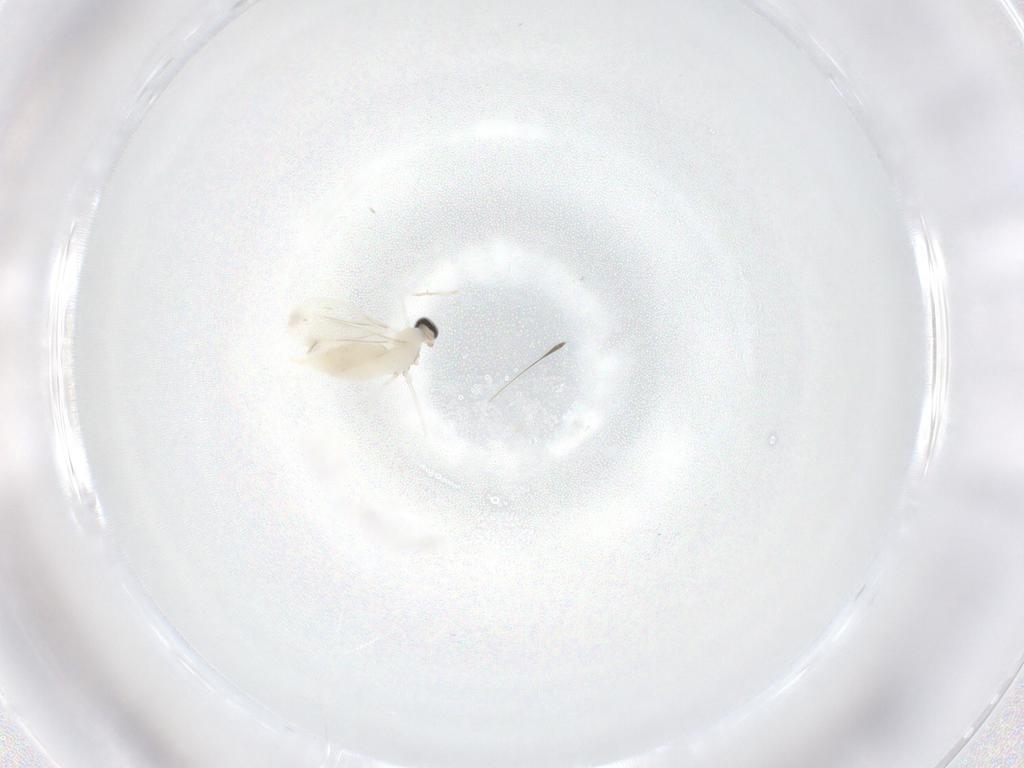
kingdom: Animalia
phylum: Arthropoda
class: Insecta
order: Diptera
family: Cecidomyiidae
